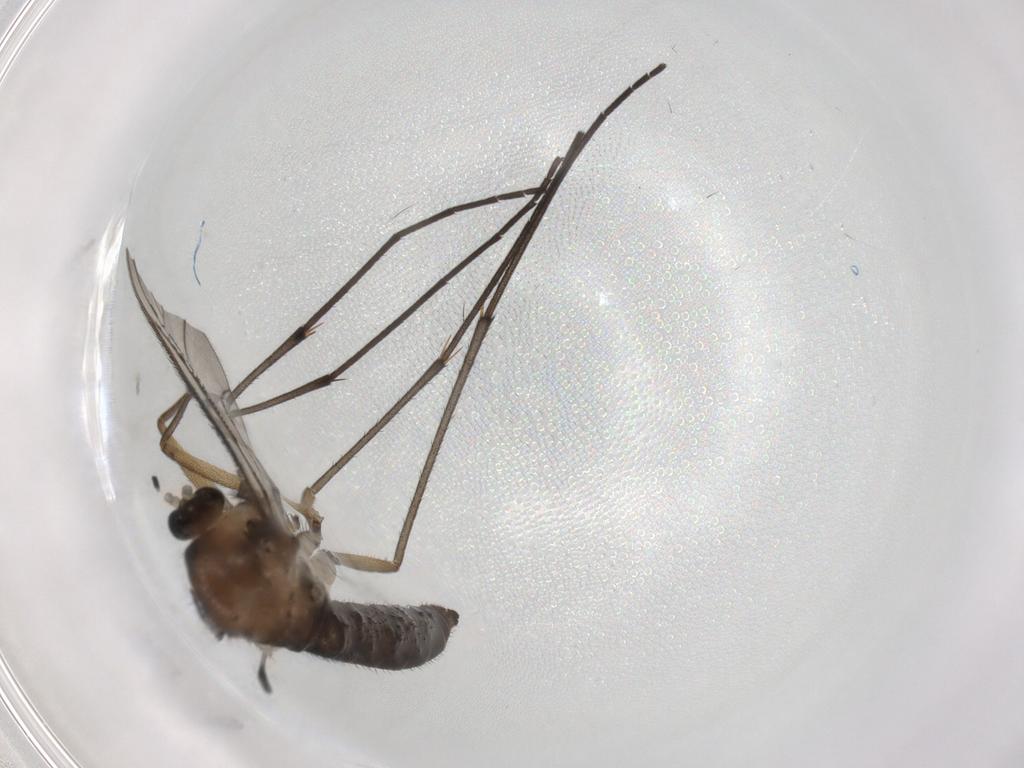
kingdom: Animalia
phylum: Arthropoda
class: Insecta
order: Diptera
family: Sciaridae
